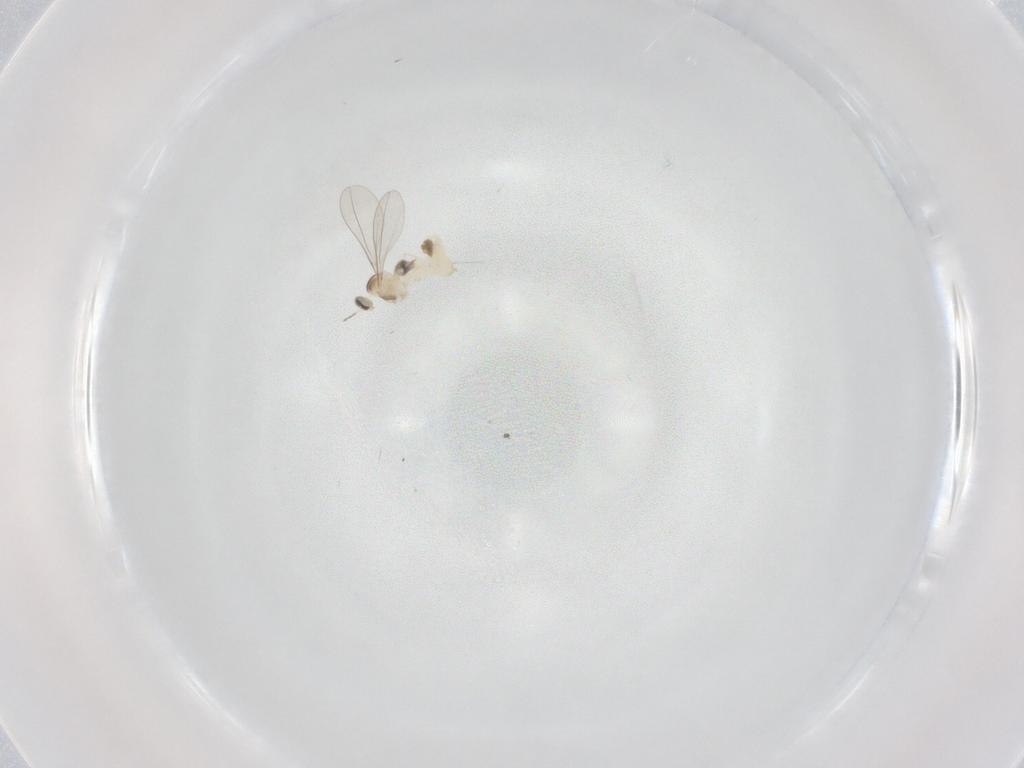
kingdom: Animalia
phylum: Arthropoda
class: Insecta
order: Diptera
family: Cecidomyiidae
